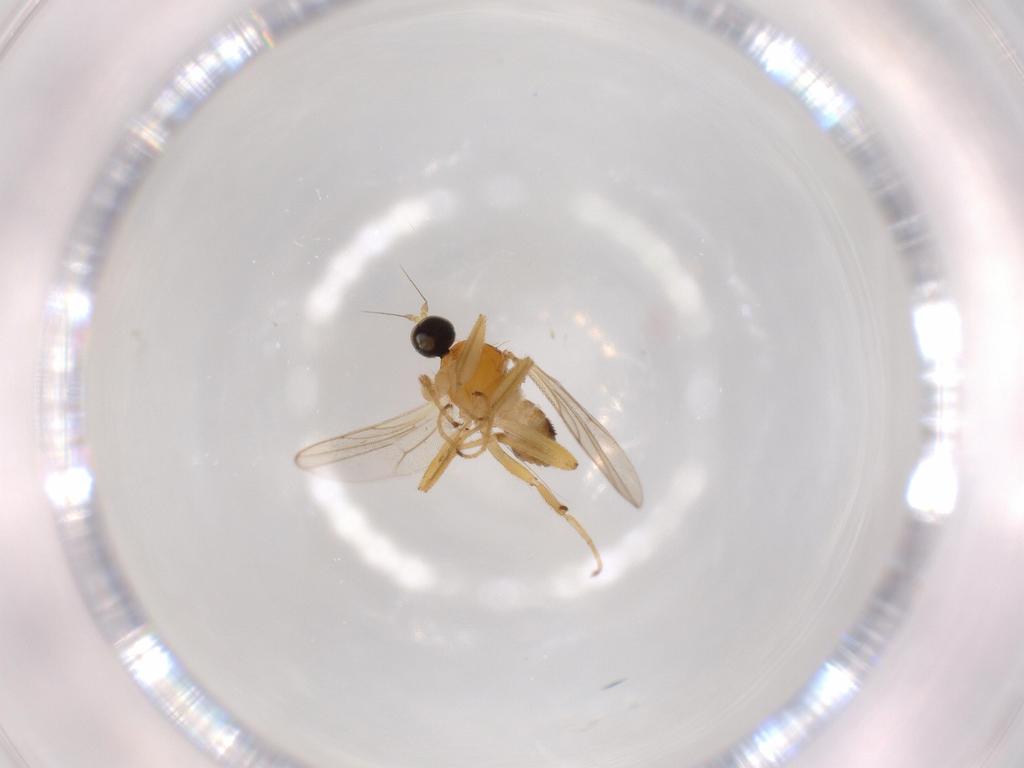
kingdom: Animalia
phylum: Arthropoda
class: Insecta
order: Diptera
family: Hybotidae
